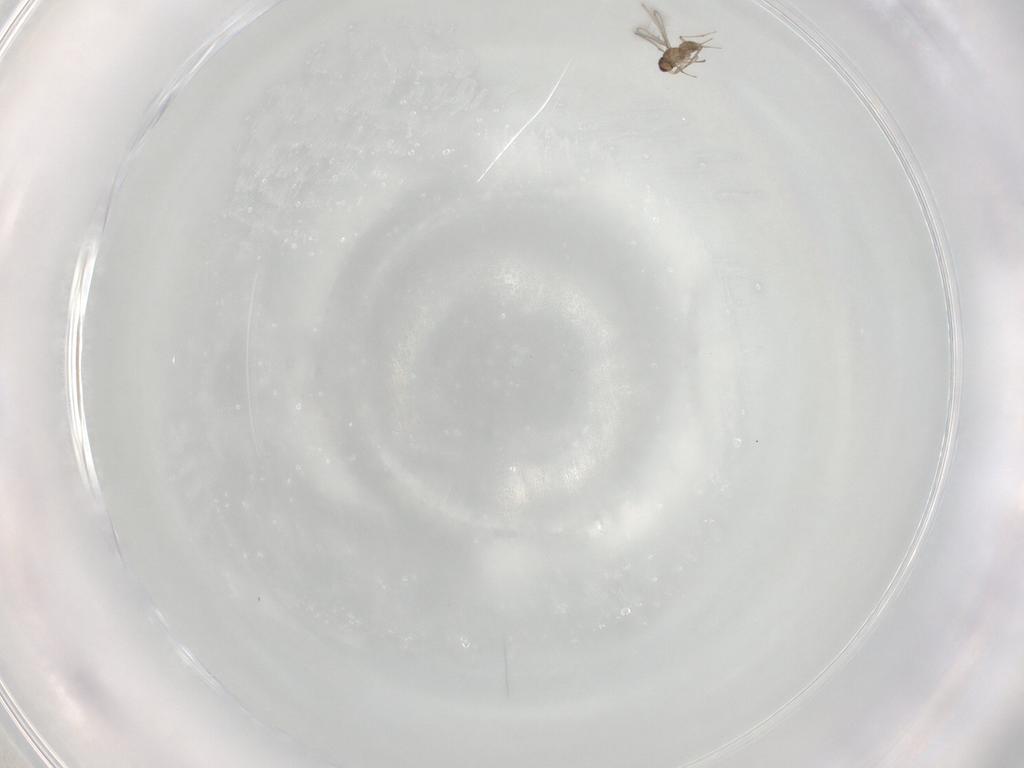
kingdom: Animalia
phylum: Arthropoda
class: Insecta
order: Hymenoptera
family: Mymaridae
